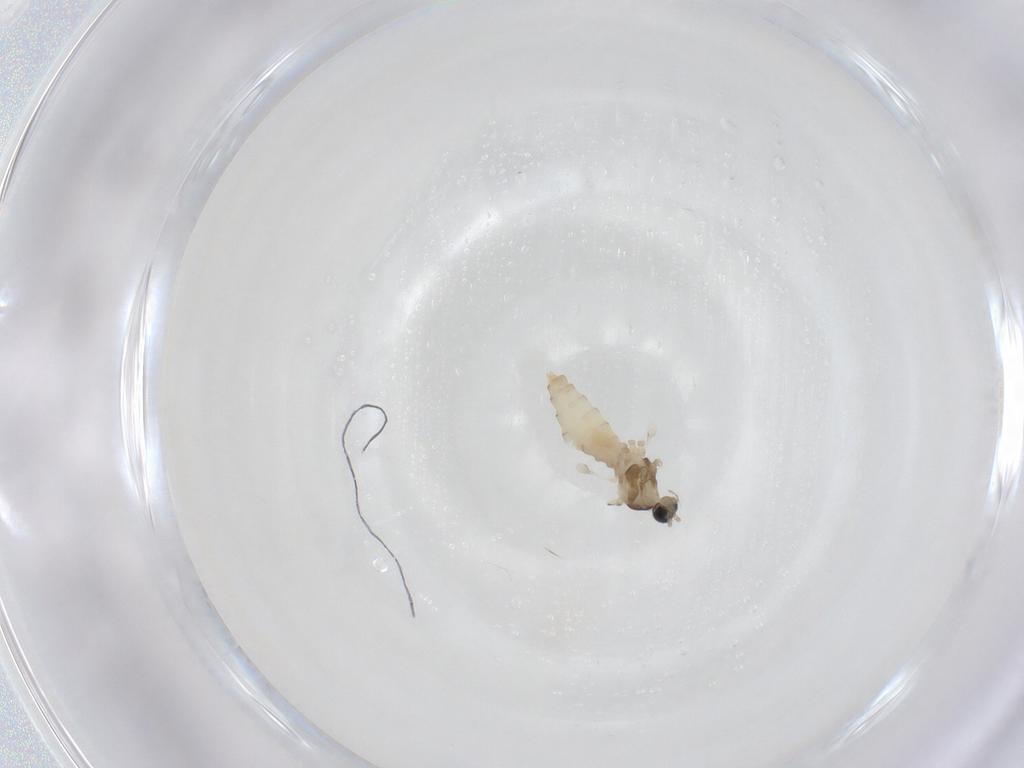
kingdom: Animalia
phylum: Arthropoda
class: Insecta
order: Diptera
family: Cecidomyiidae
